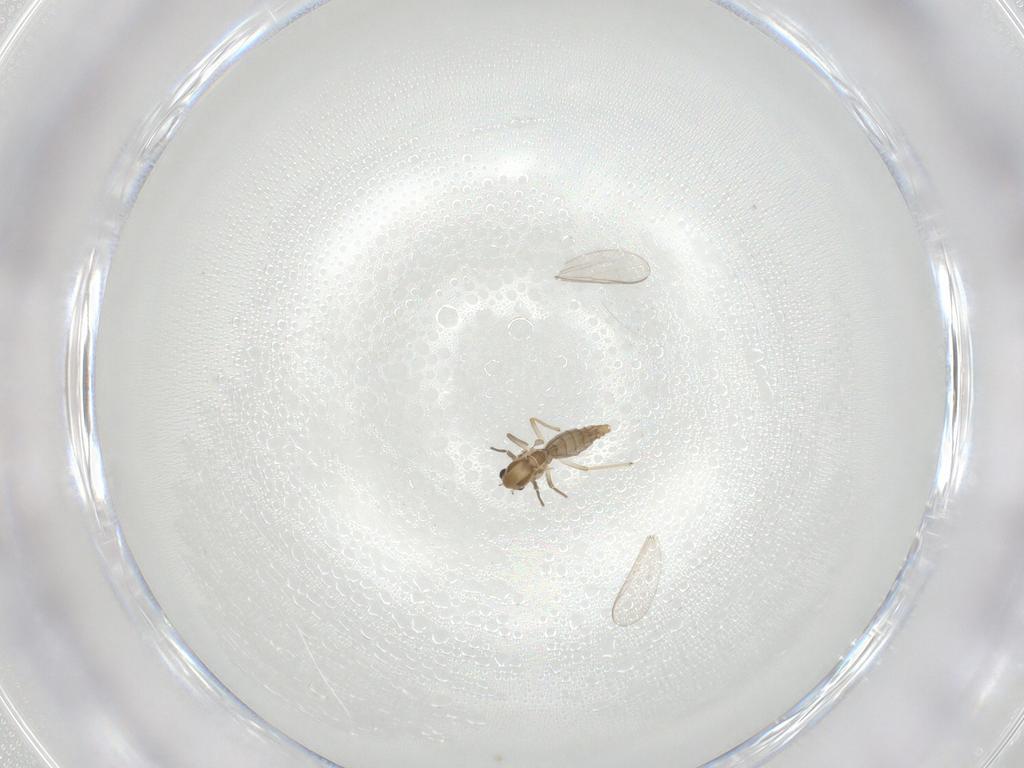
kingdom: Animalia
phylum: Arthropoda
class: Insecta
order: Diptera
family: Chironomidae
